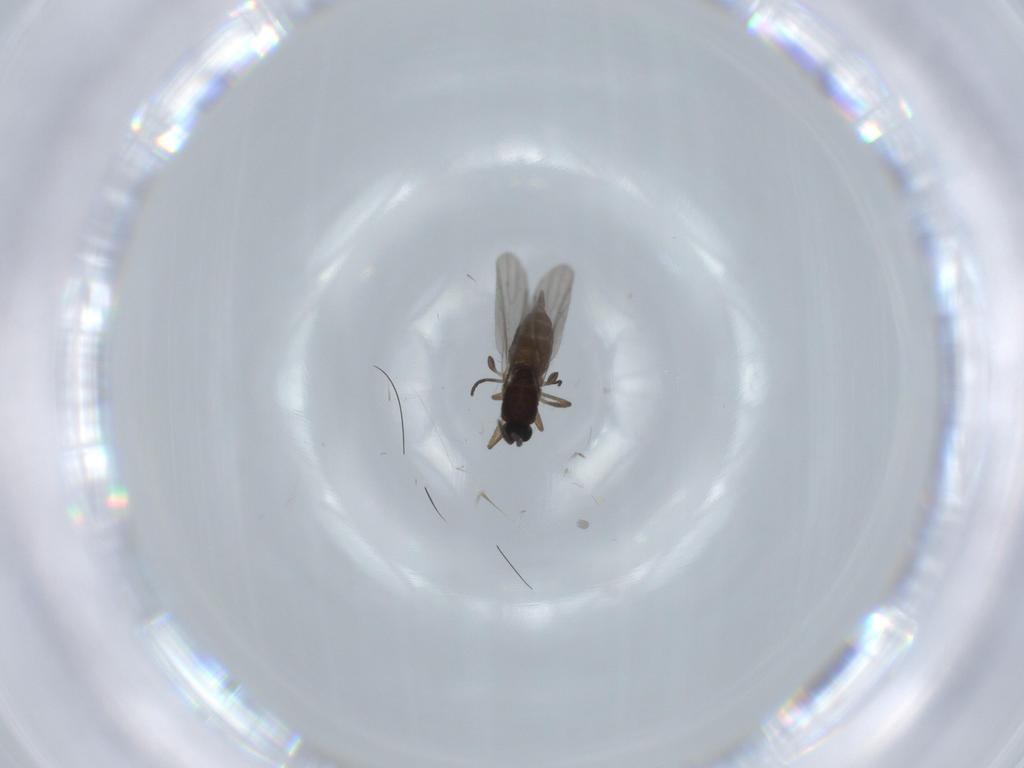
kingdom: Animalia
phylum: Arthropoda
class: Insecta
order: Diptera
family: Sciaridae
